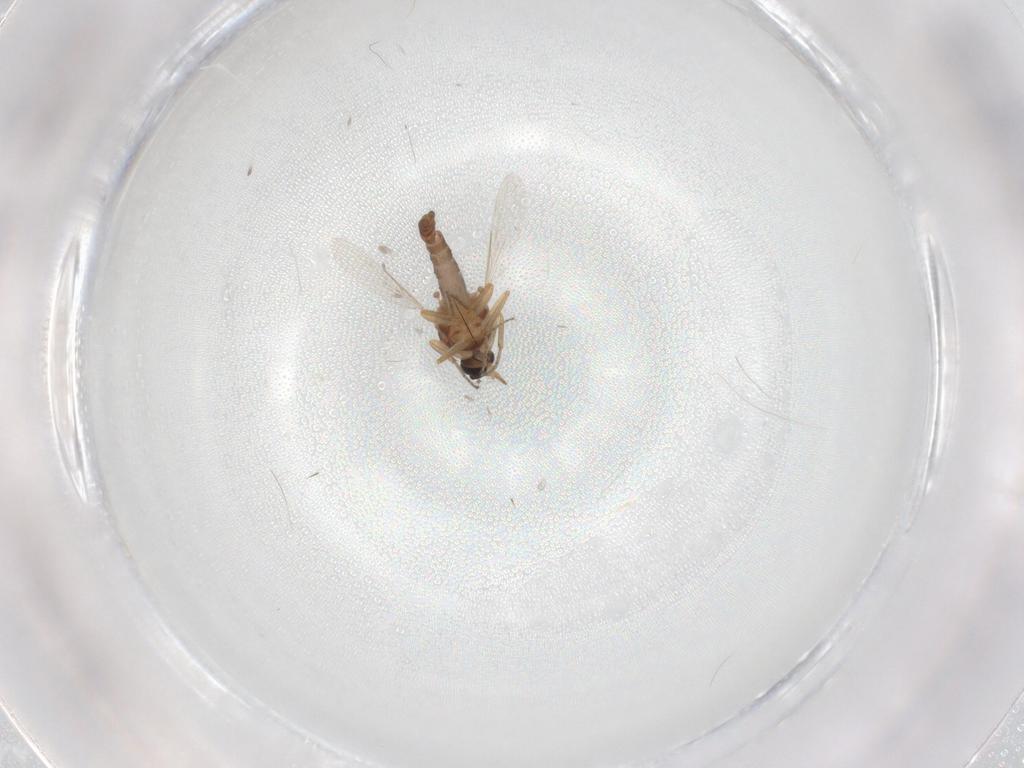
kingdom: Animalia
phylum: Arthropoda
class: Insecta
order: Diptera
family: Ceratopogonidae
